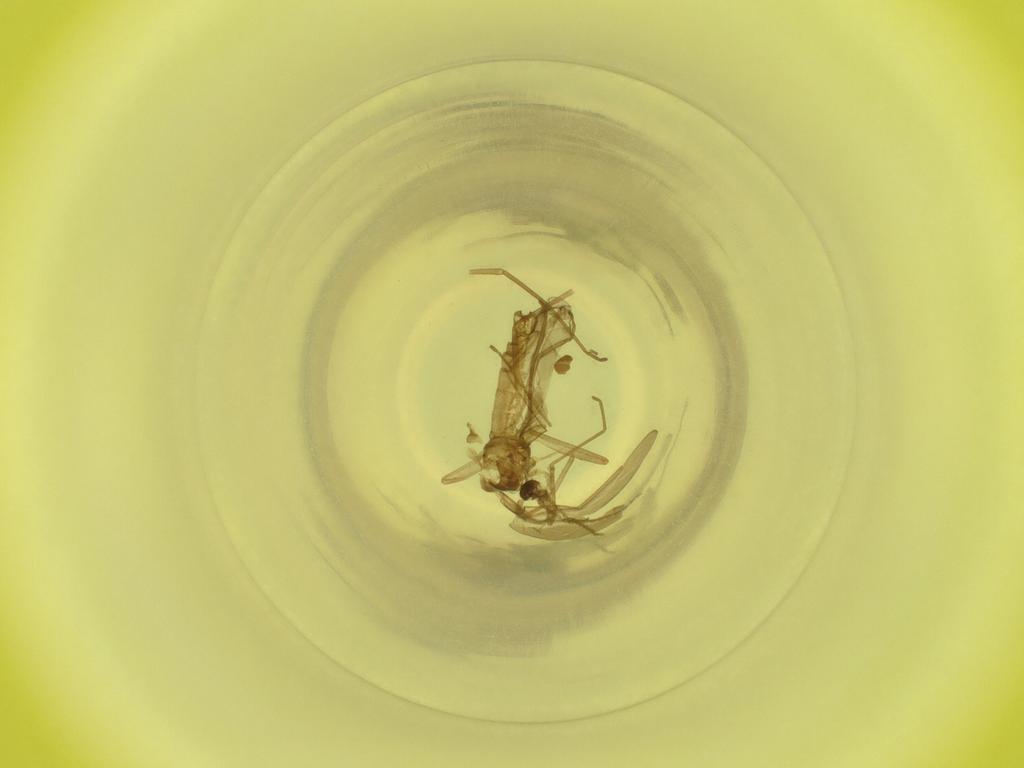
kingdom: Animalia
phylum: Arthropoda
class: Insecta
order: Diptera
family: Cecidomyiidae
